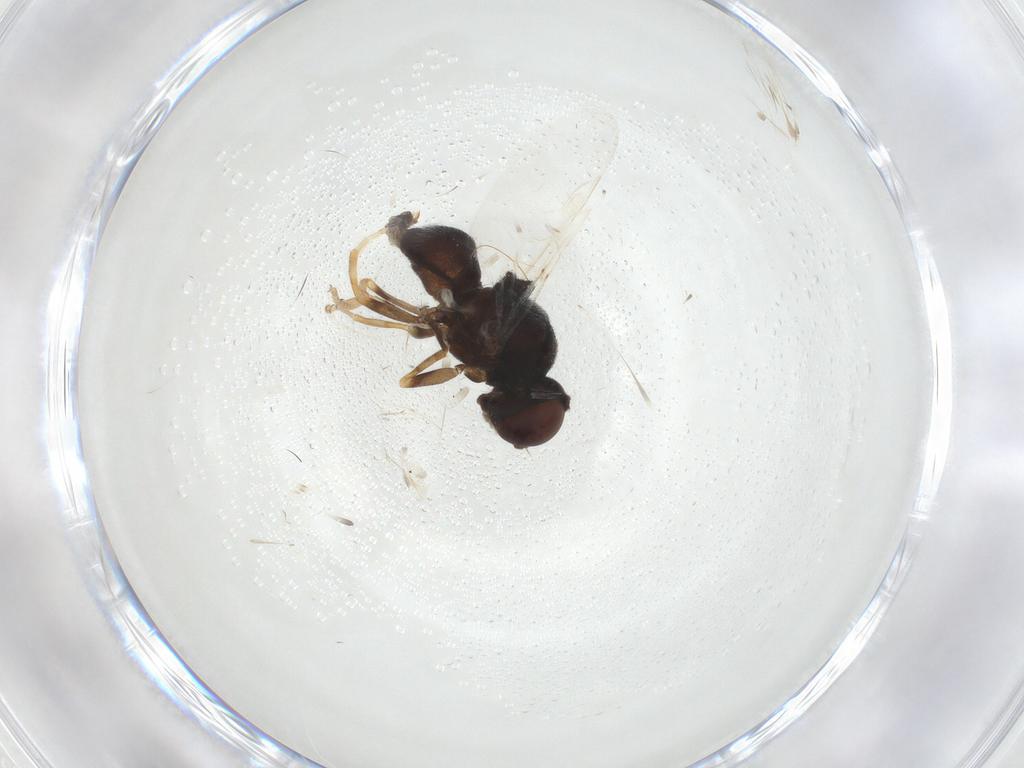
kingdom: Animalia
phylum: Arthropoda
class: Insecta
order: Diptera
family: Stratiomyidae
